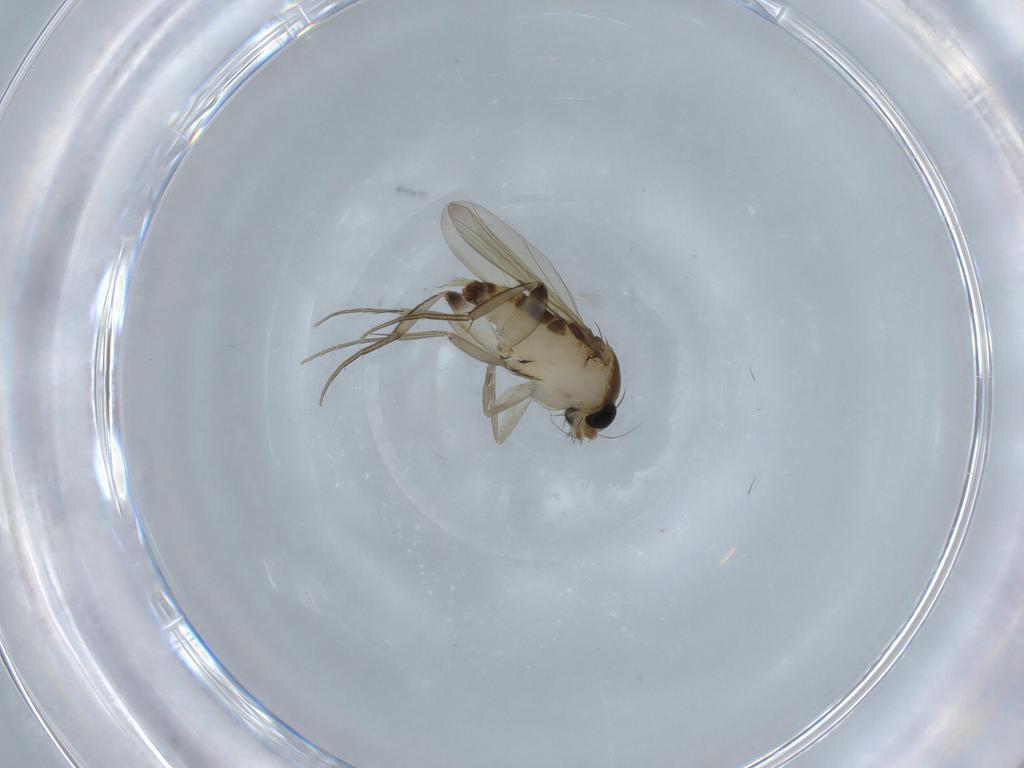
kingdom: Animalia
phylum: Arthropoda
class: Insecta
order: Diptera
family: Phoridae
